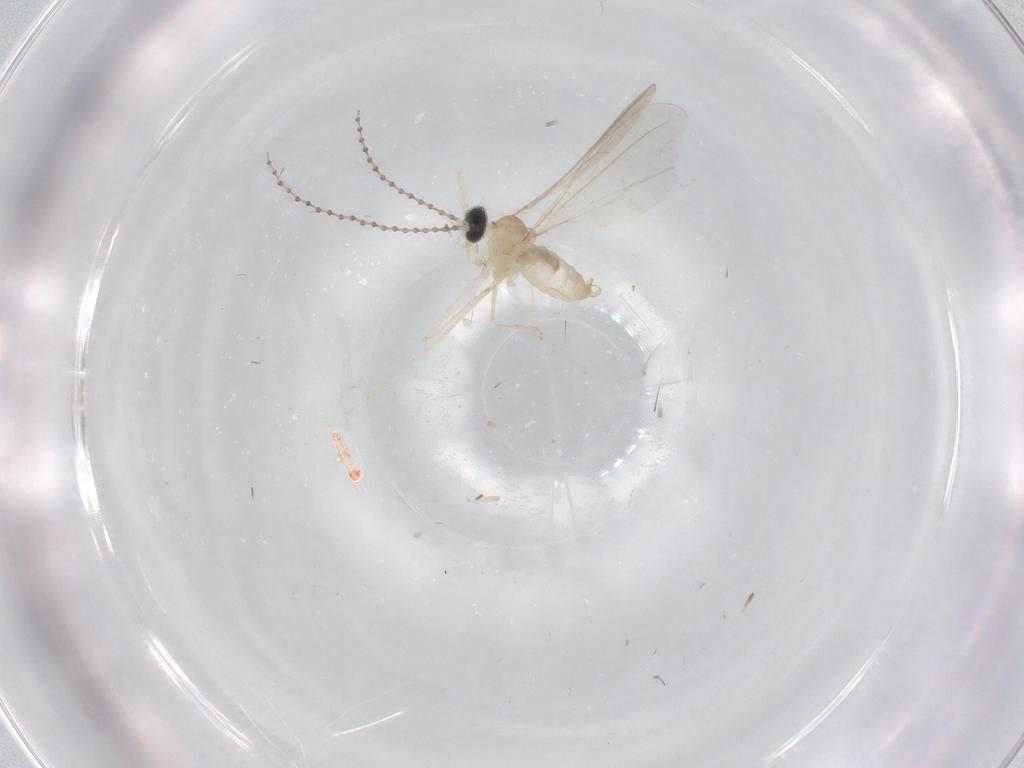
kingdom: Animalia
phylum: Arthropoda
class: Insecta
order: Diptera
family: Cecidomyiidae
